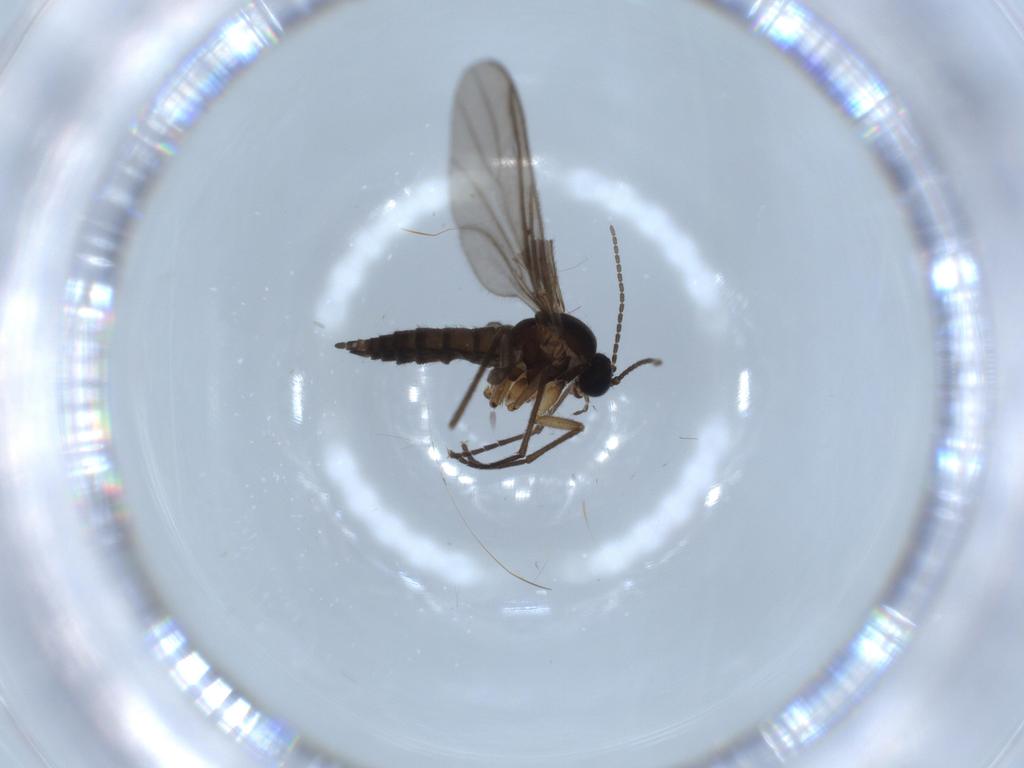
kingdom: Animalia
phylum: Arthropoda
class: Insecta
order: Diptera
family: Sciaridae
